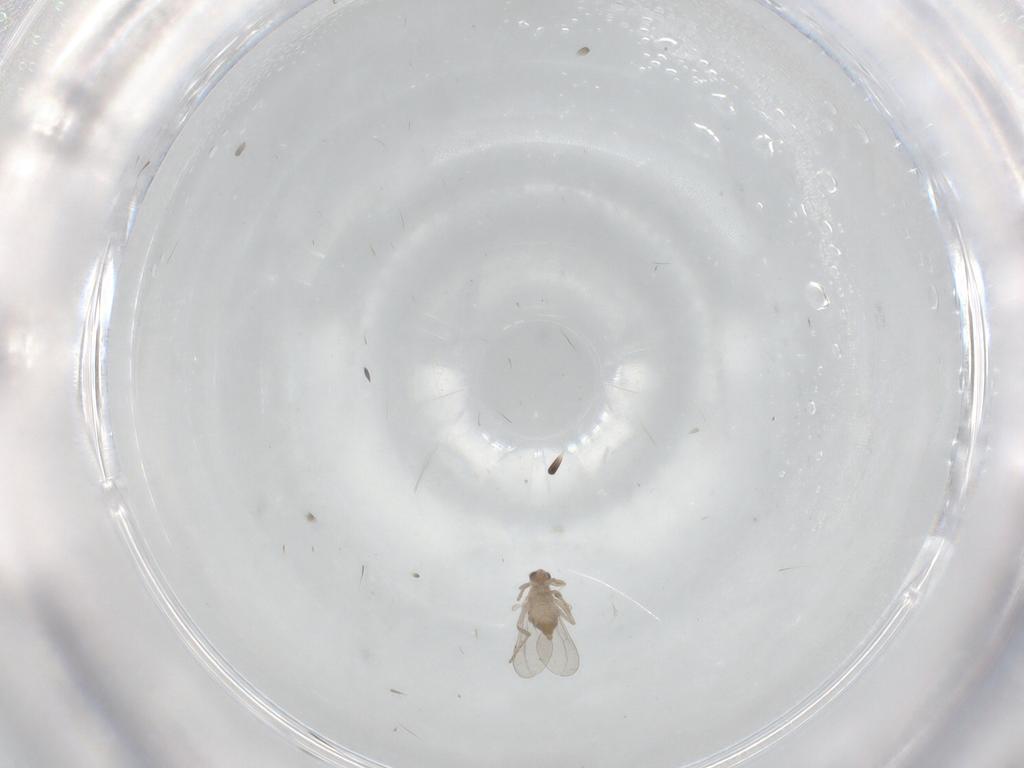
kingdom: Animalia
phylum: Arthropoda
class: Insecta
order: Diptera
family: Cecidomyiidae
